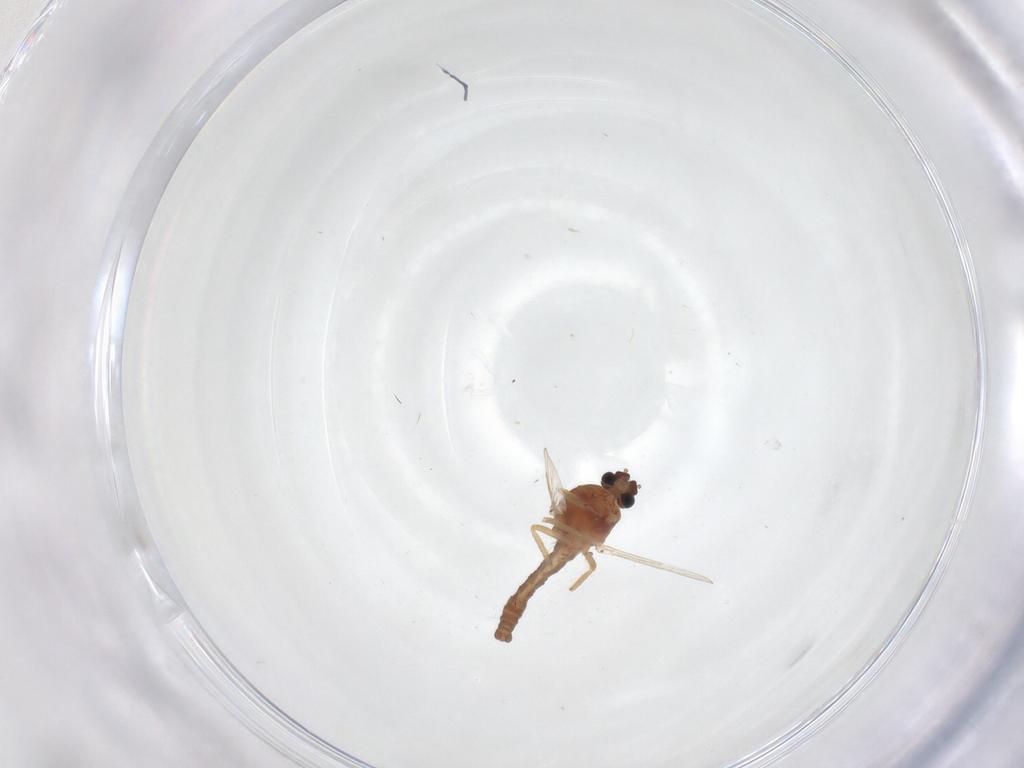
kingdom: Animalia
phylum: Arthropoda
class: Insecta
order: Diptera
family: Ceratopogonidae
